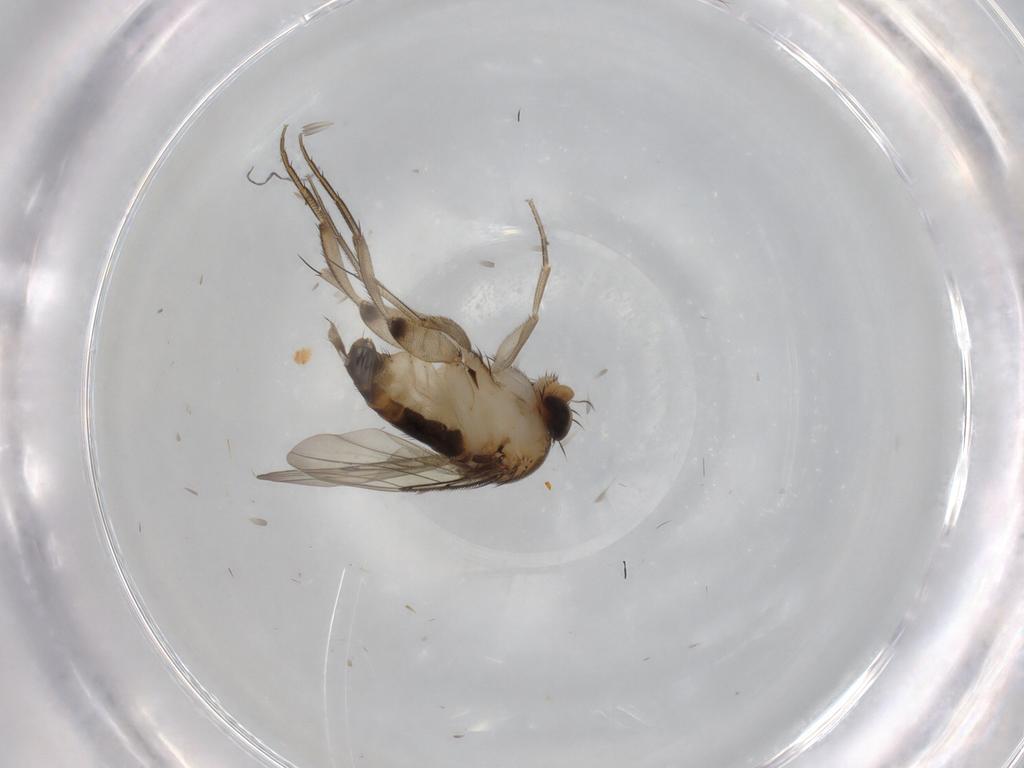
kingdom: Animalia
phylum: Arthropoda
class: Insecta
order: Diptera
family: Phoridae
